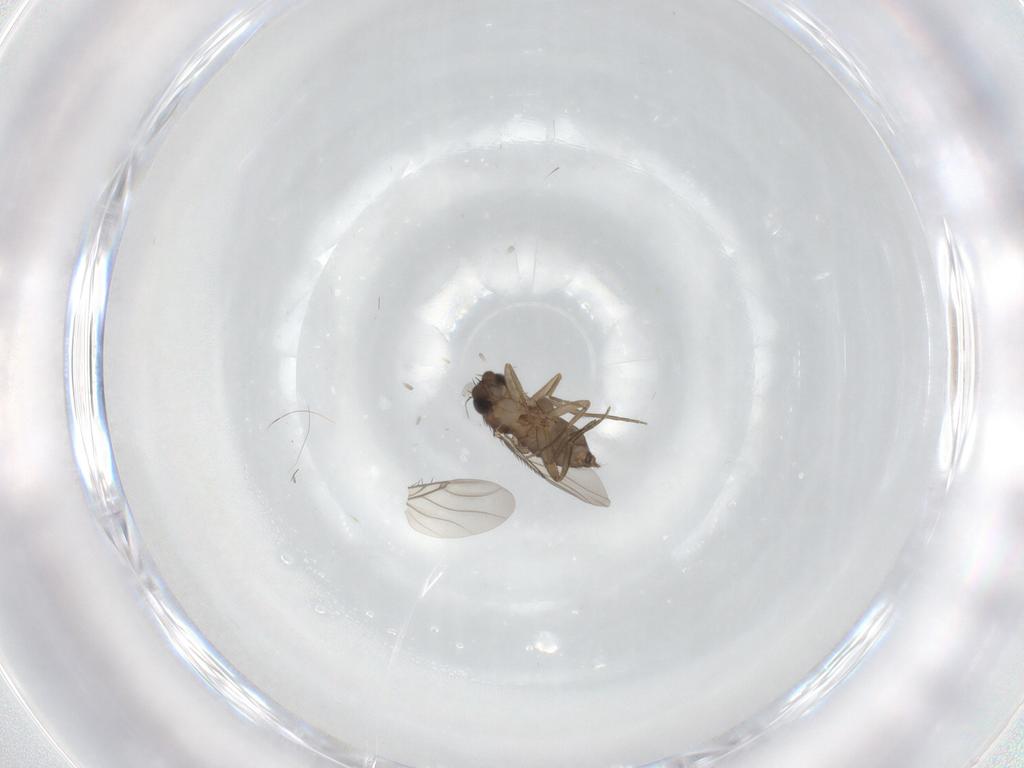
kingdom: Animalia
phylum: Arthropoda
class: Insecta
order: Diptera
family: Phoridae
